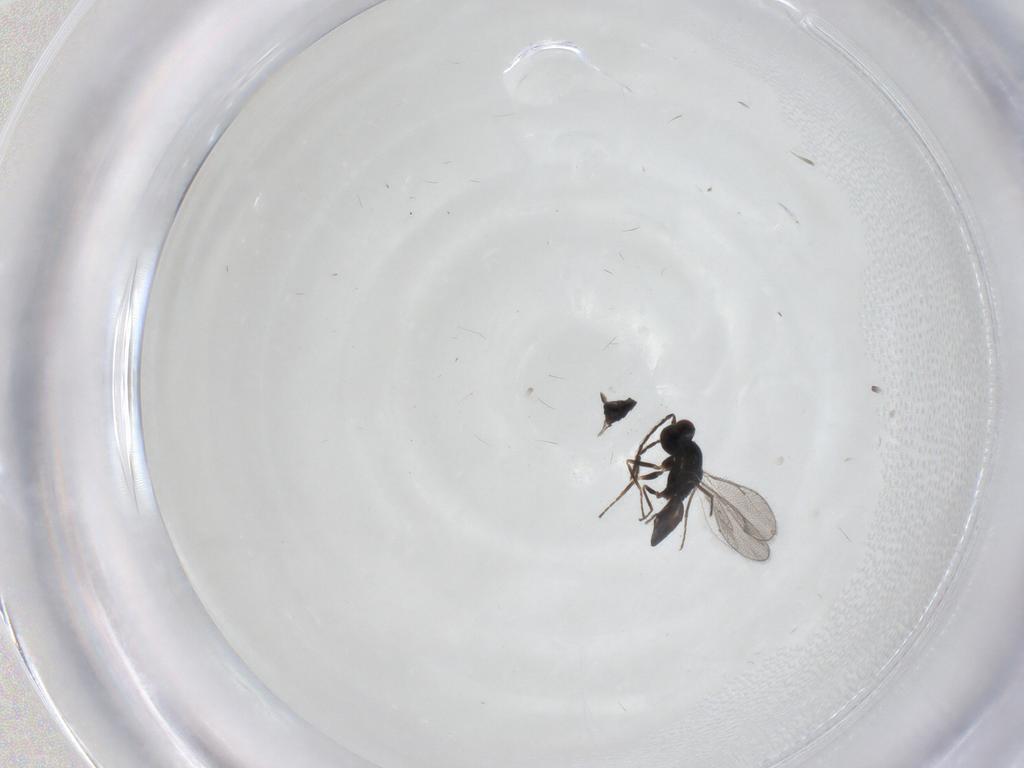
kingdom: Animalia
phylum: Arthropoda
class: Insecta
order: Hymenoptera
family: Eulophidae
